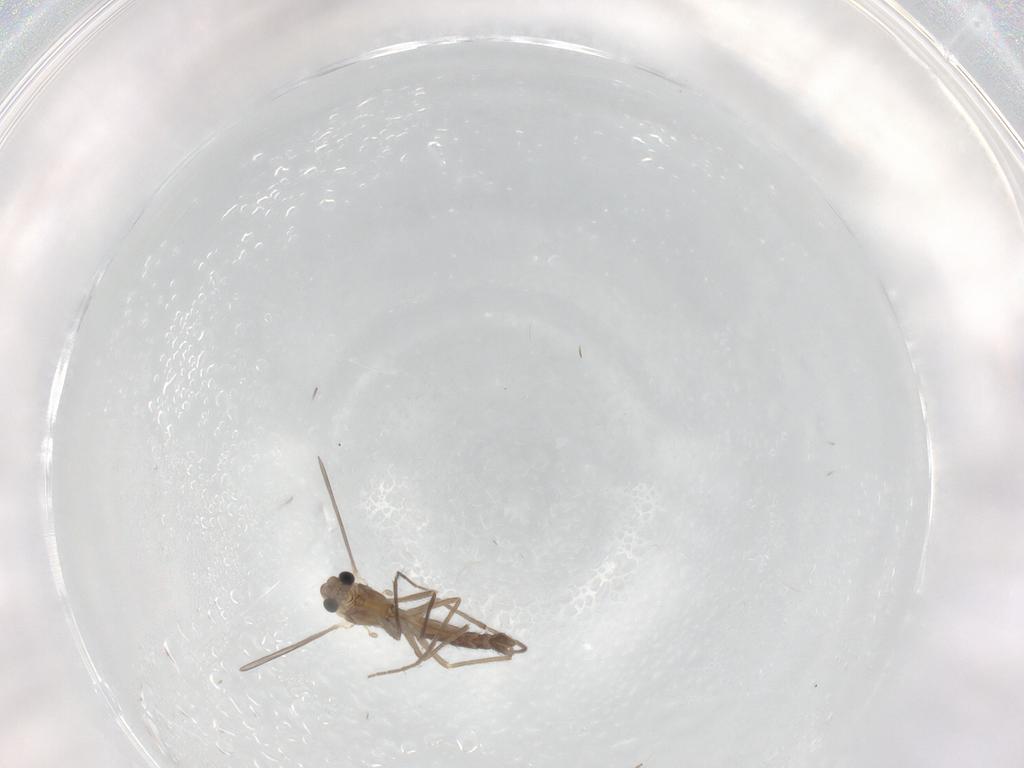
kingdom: Animalia
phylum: Arthropoda
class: Insecta
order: Diptera
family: Chironomidae
